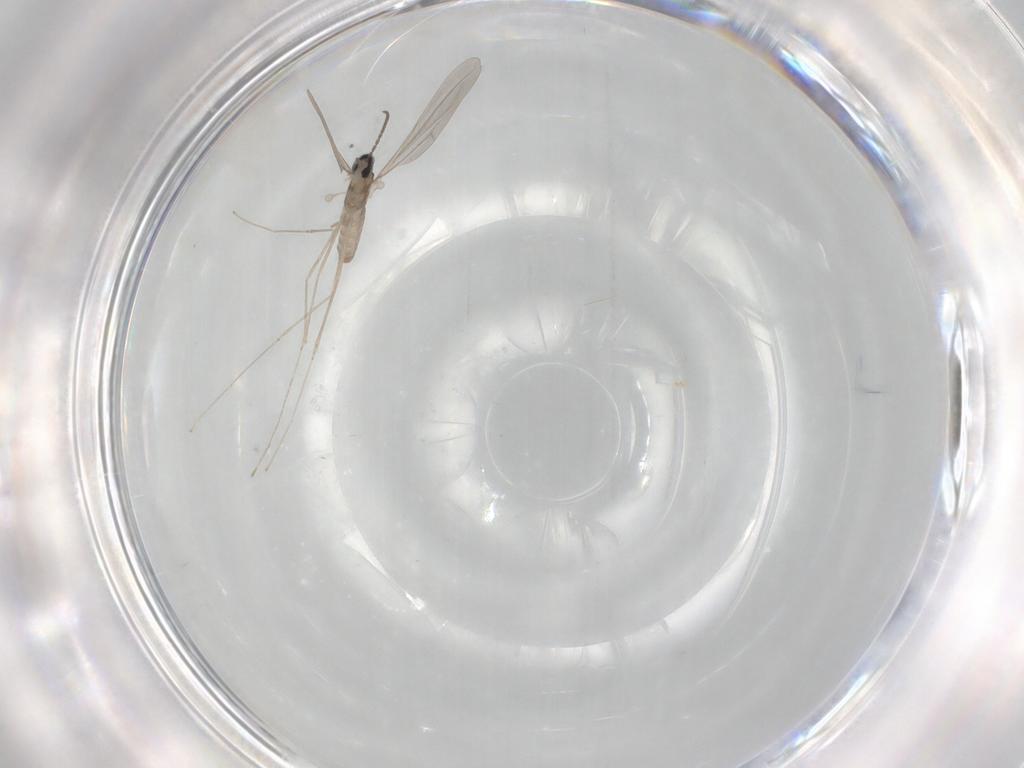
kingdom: Animalia
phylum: Arthropoda
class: Insecta
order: Diptera
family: Cecidomyiidae
